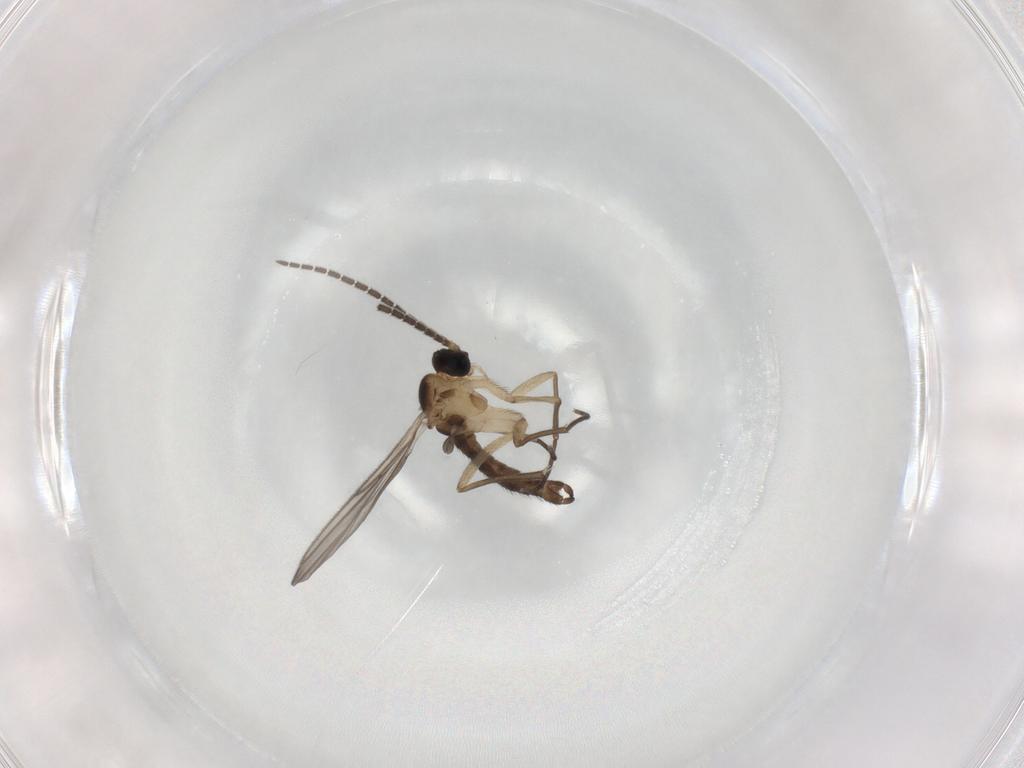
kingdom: Animalia
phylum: Arthropoda
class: Insecta
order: Diptera
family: Sciaridae
